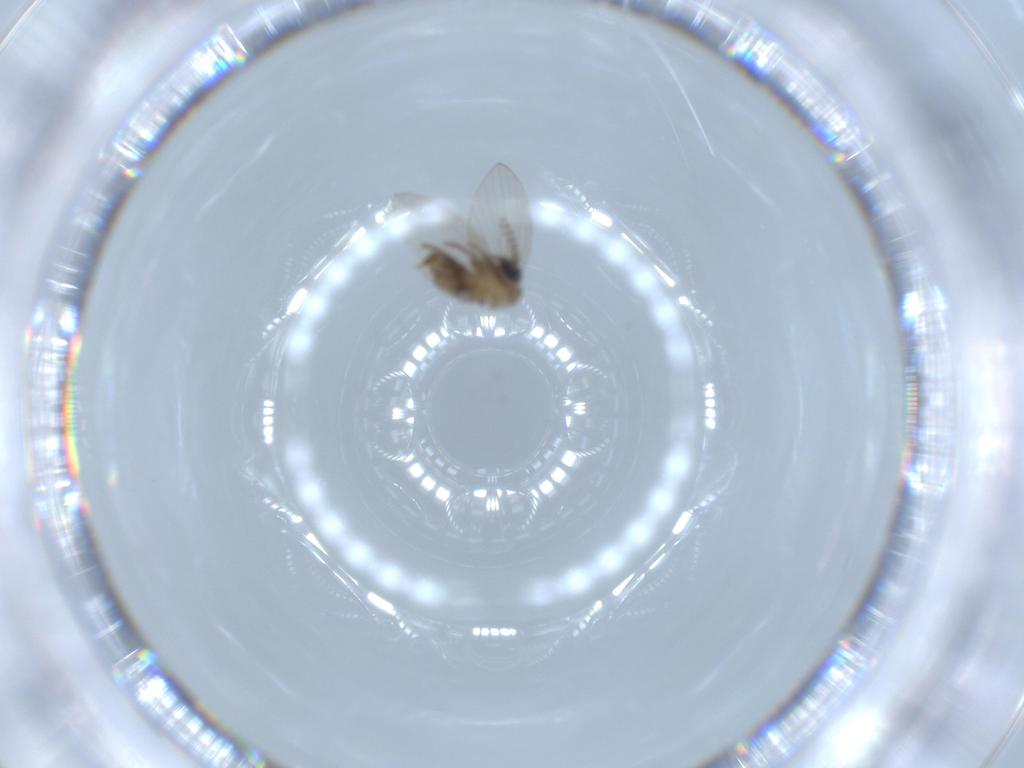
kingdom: Animalia
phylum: Arthropoda
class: Insecta
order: Diptera
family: Psychodidae
